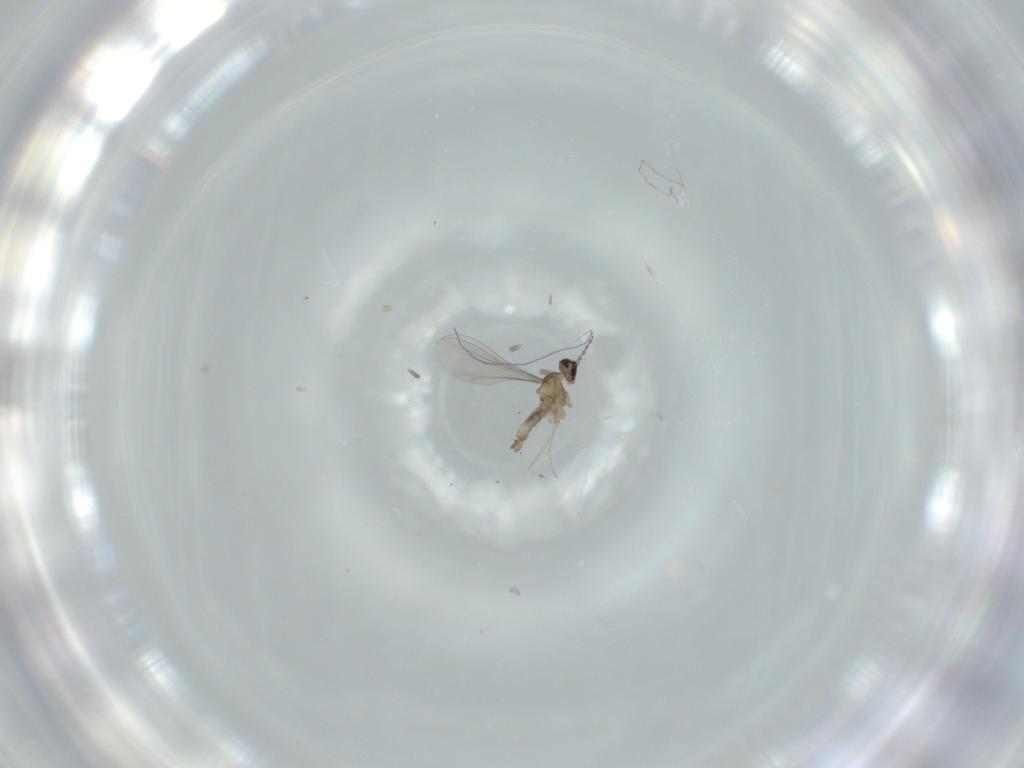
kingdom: Animalia
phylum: Arthropoda
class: Insecta
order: Diptera
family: Cecidomyiidae
